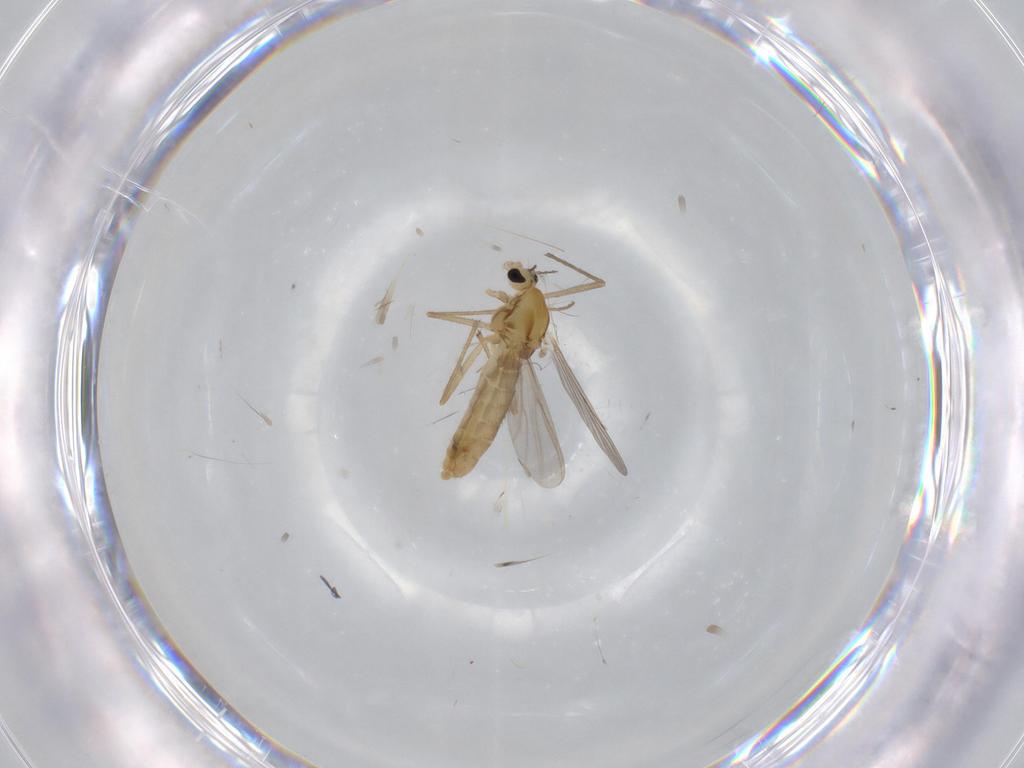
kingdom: Animalia
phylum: Arthropoda
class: Insecta
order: Diptera
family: Chironomidae
